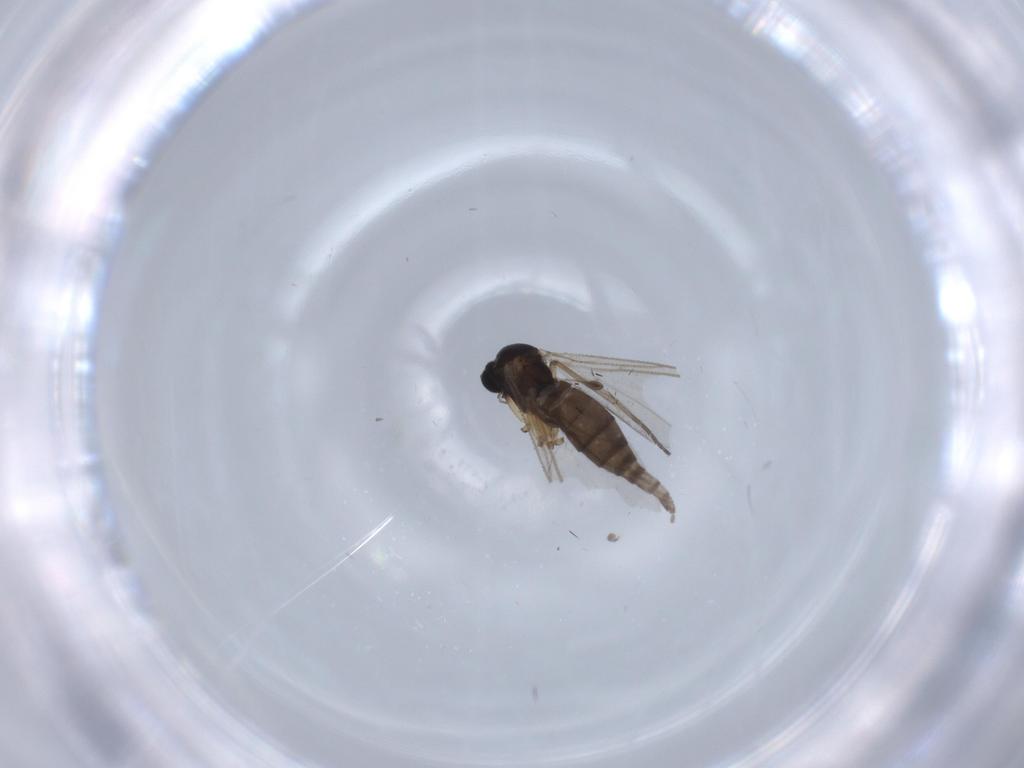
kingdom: Animalia
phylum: Arthropoda
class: Insecta
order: Diptera
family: Sciaridae
